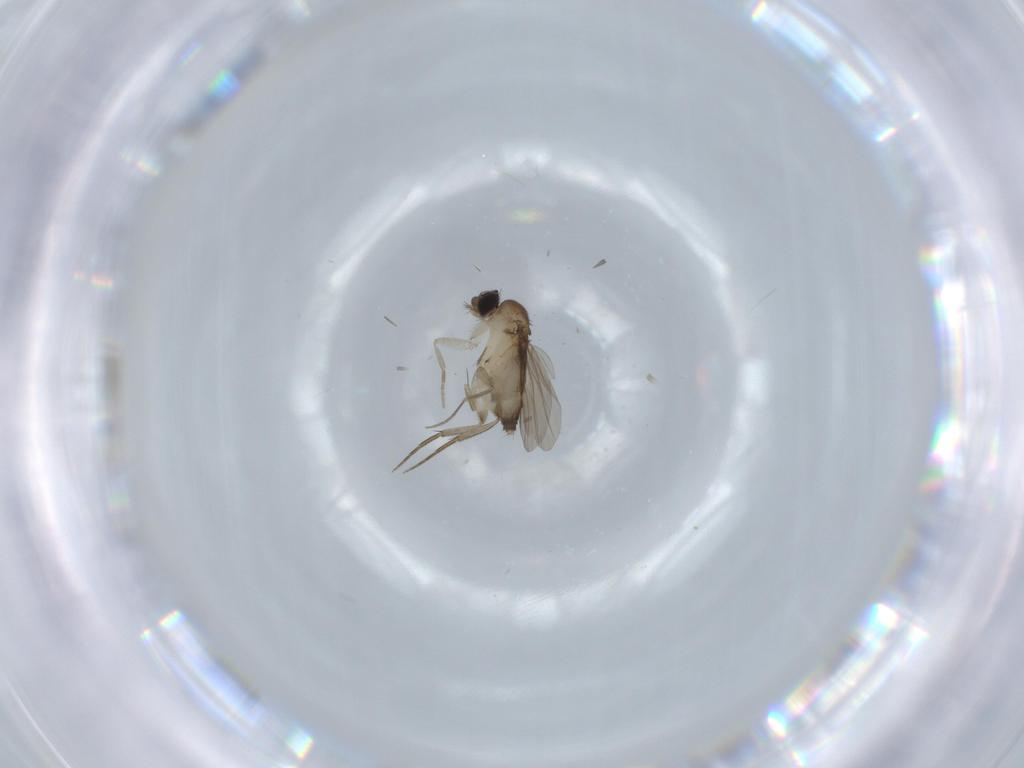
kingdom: Animalia
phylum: Arthropoda
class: Insecta
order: Diptera
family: Phoridae
